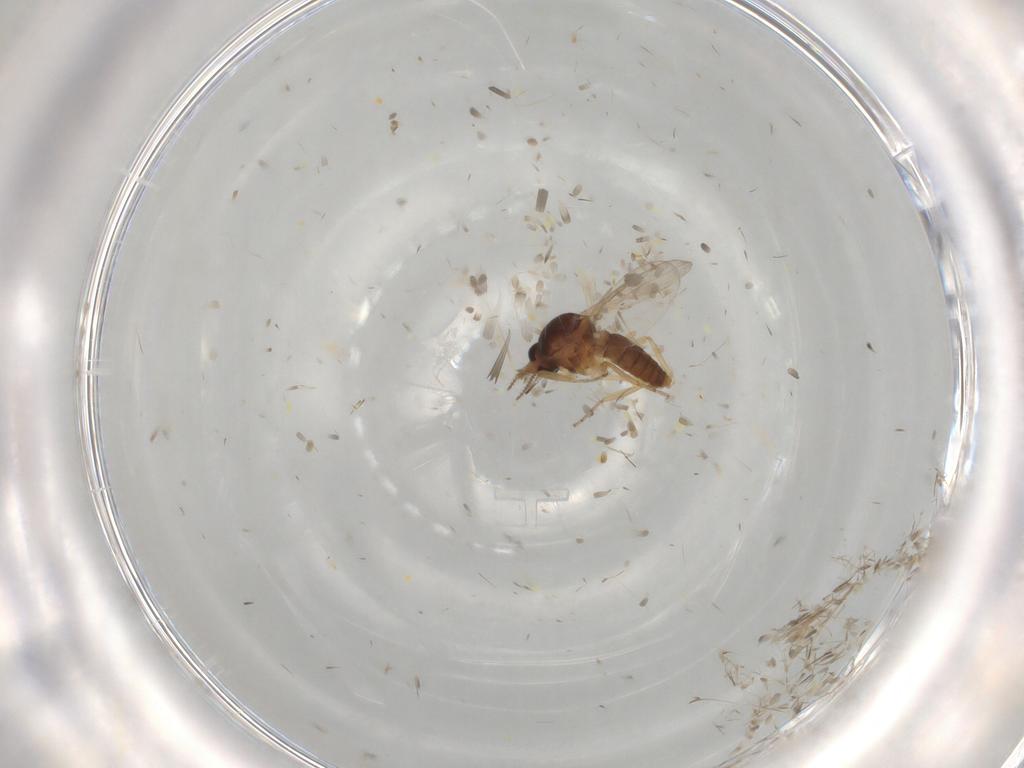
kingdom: Animalia
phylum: Arthropoda
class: Insecta
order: Diptera
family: Ceratopogonidae
